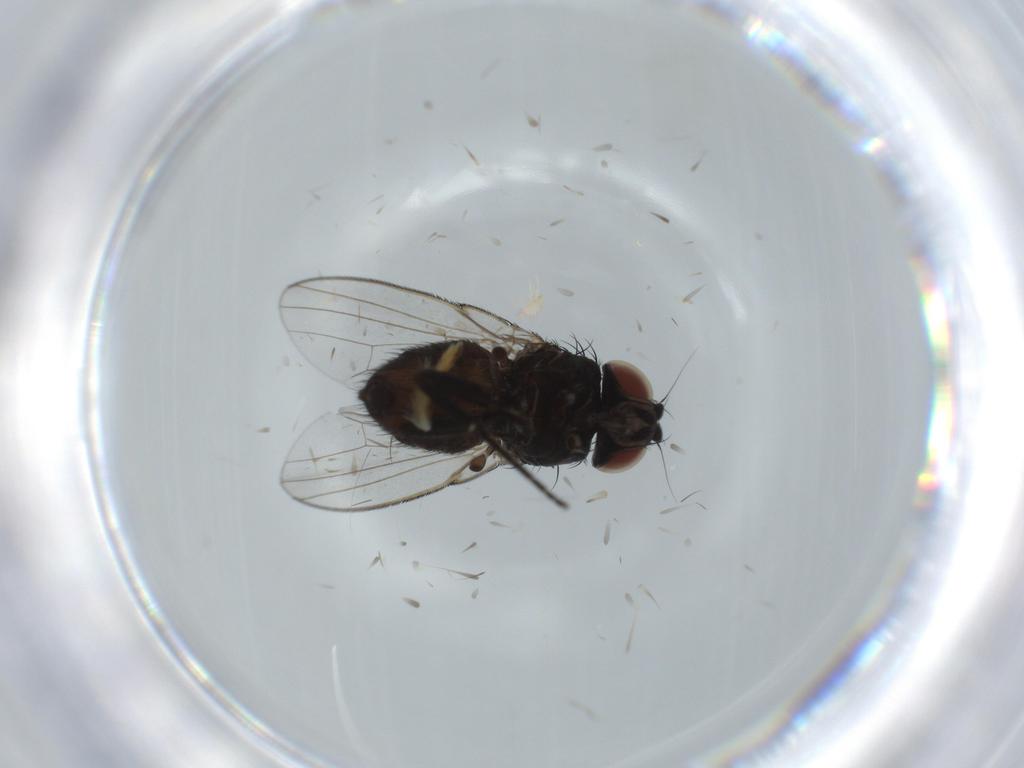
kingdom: Animalia
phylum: Arthropoda
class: Insecta
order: Diptera
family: Milichiidae
